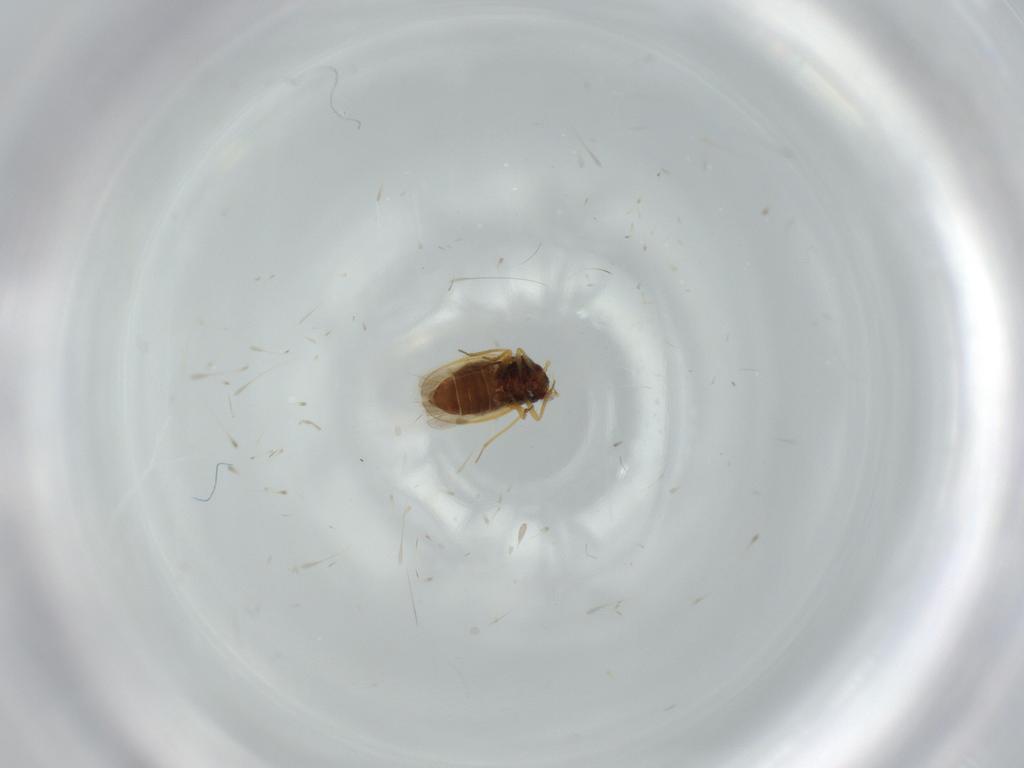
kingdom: Animalia
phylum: Arthropoda
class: Insecta
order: Hemiptera
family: Schizopteridae
